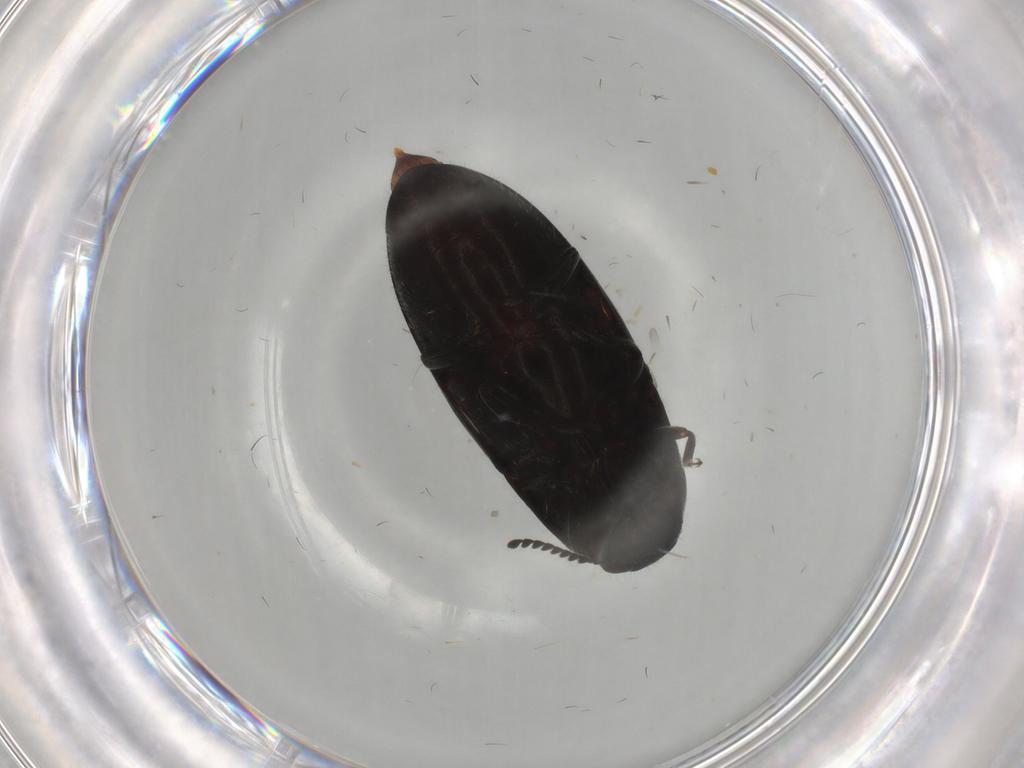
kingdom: Animalia
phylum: Arthropoda
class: Insecta
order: Coleoptera
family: Elateridae
